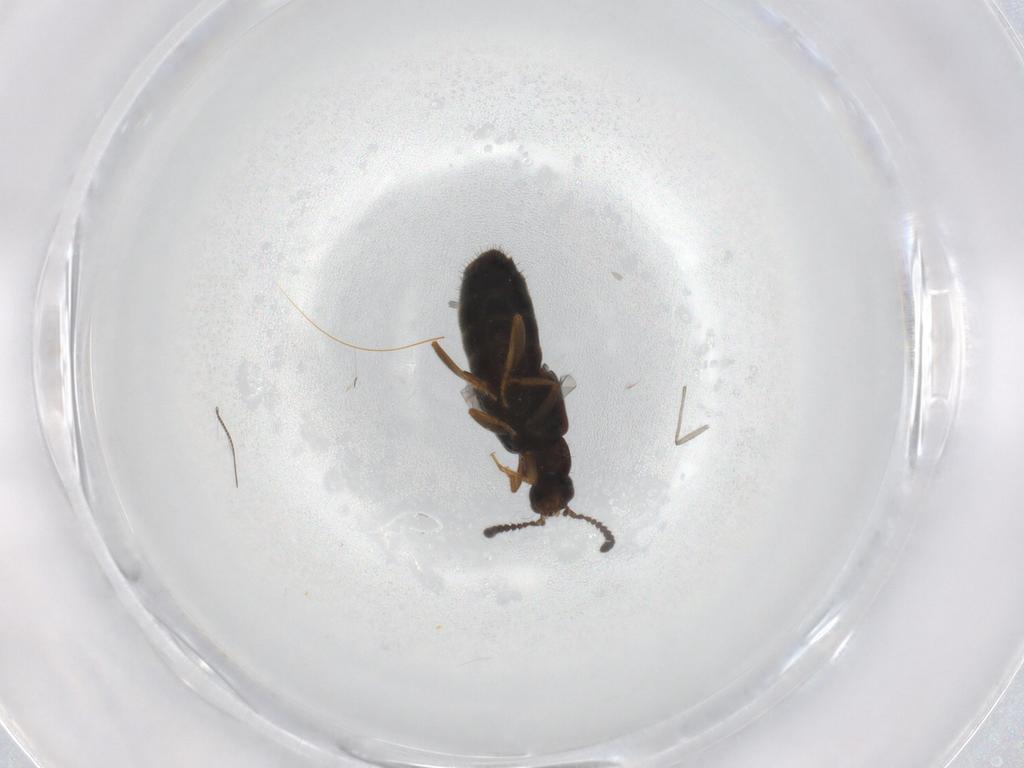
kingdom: Animalia
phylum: Arthropoda
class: Insecta
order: Coleoptera
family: Staphylinidae
